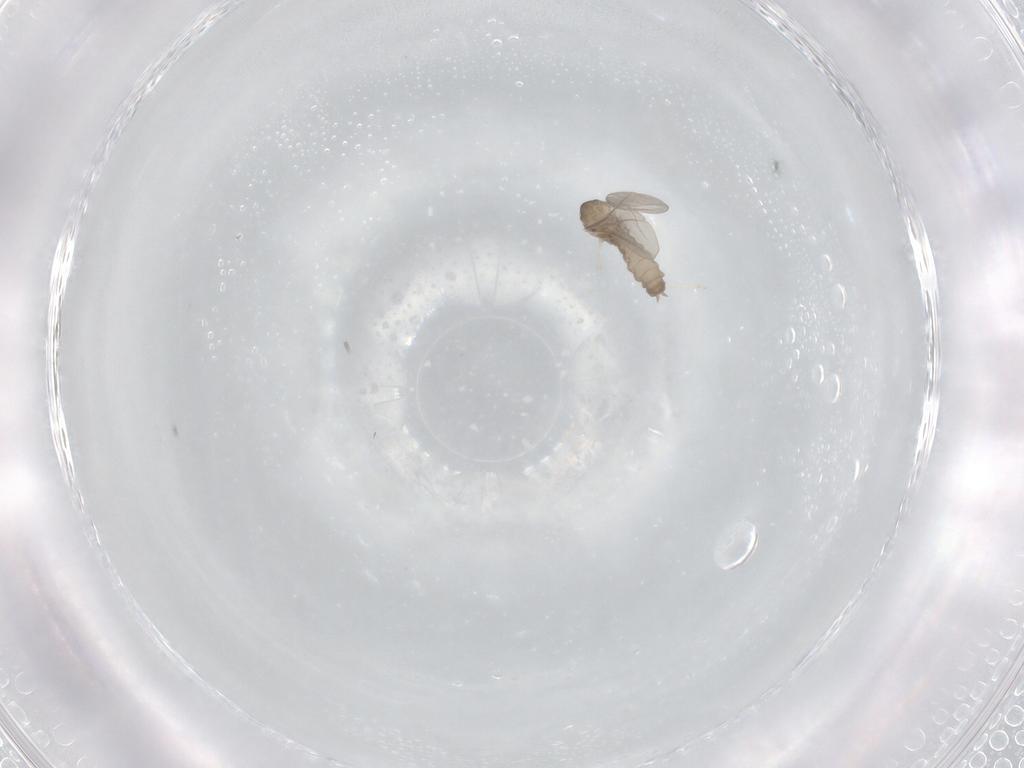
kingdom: Animalia
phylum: Arthropoda
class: Insecta
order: Diptera
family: Cecidomyiidae
